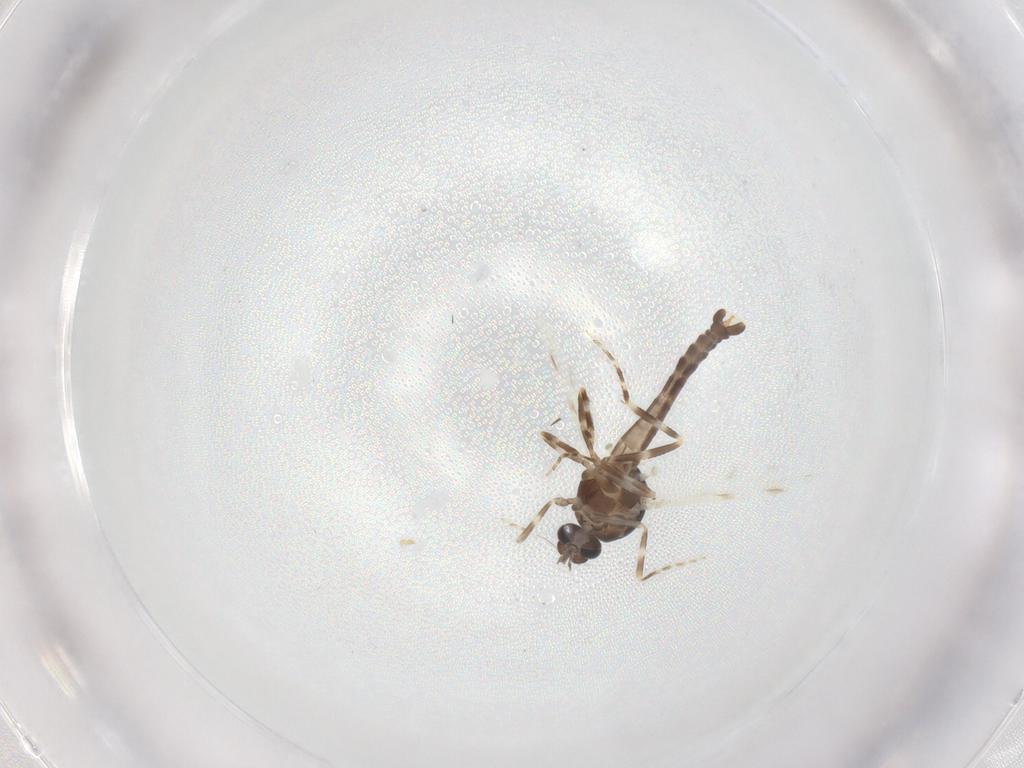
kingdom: Animalia
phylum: Arthropoda
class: Insecta
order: Diptera
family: Ceratopogonidae
